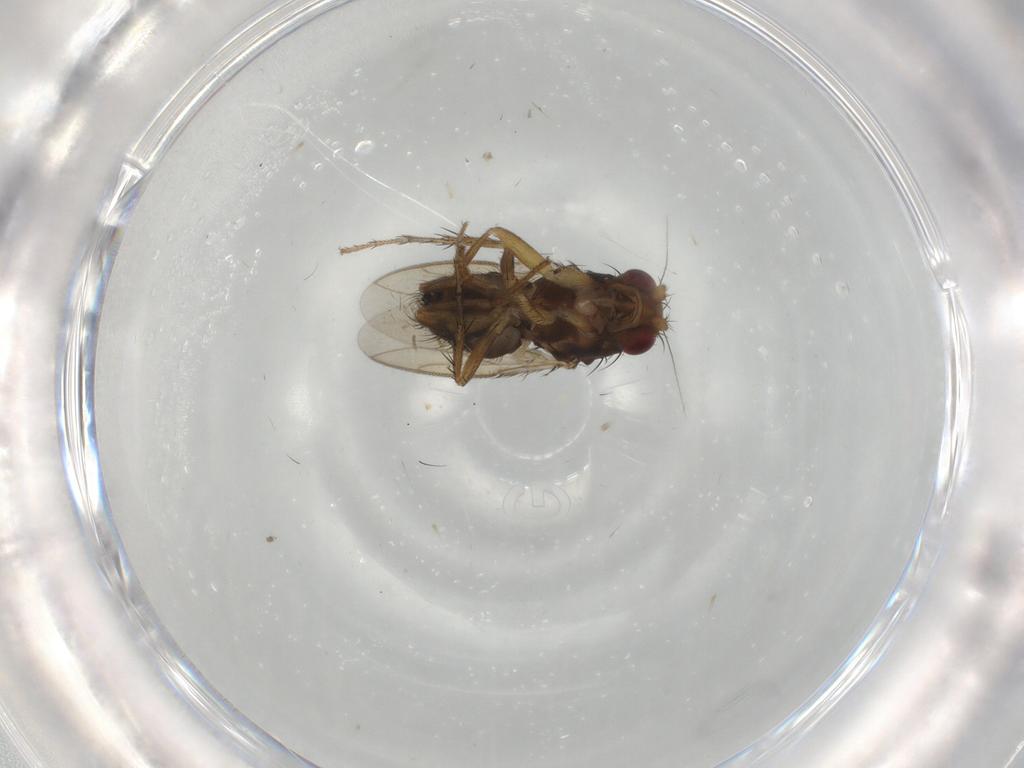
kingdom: Animalia
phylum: Arthropoda
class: Insecta
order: Diptera
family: Sphaeroceridae
